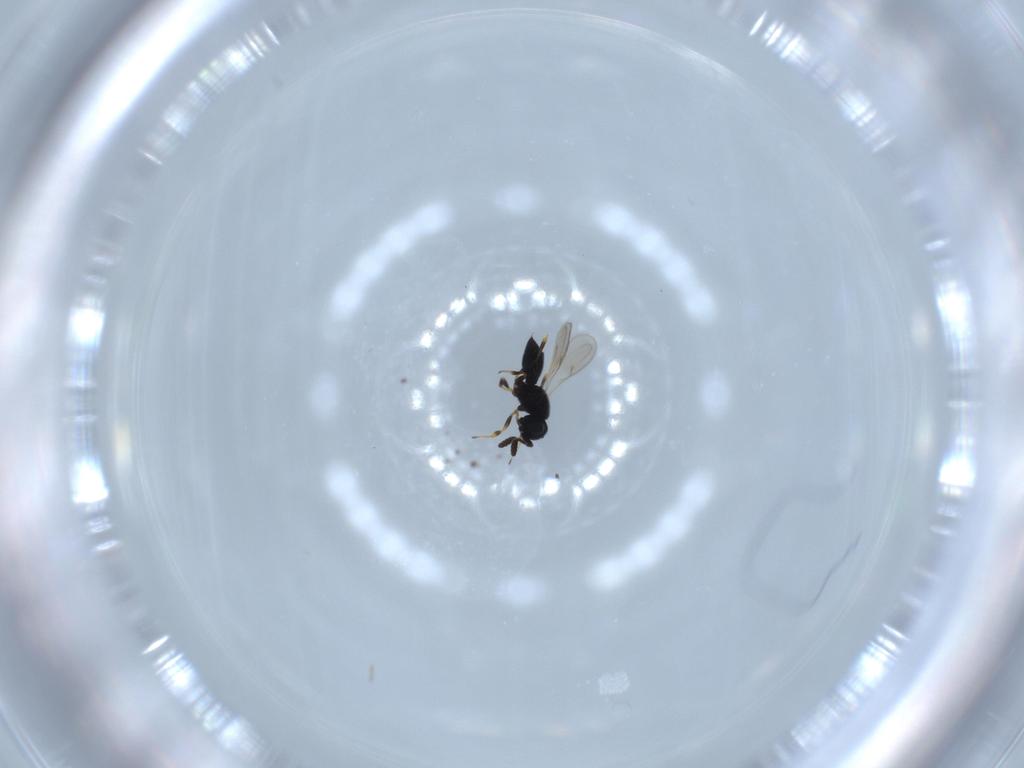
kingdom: Animalia
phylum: Arthropoda
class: Insecta
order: Hymenoptera
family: Scelionidae
